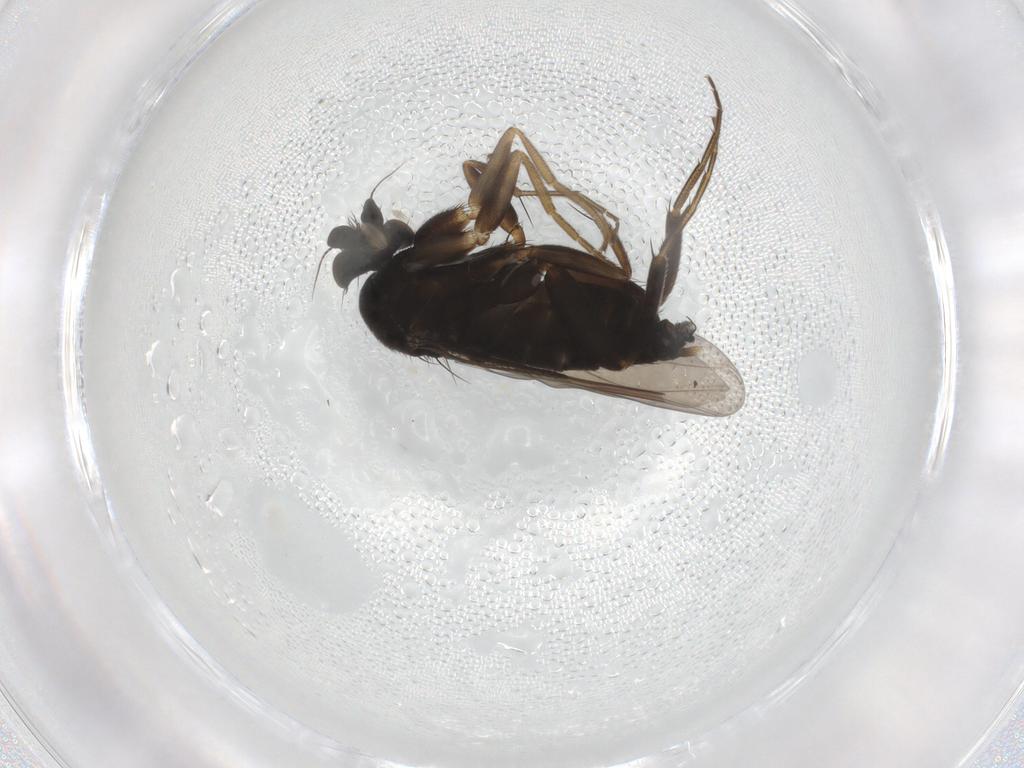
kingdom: Animalia
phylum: Arthropoda
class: Insecta
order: Diptera
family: Phoridae
